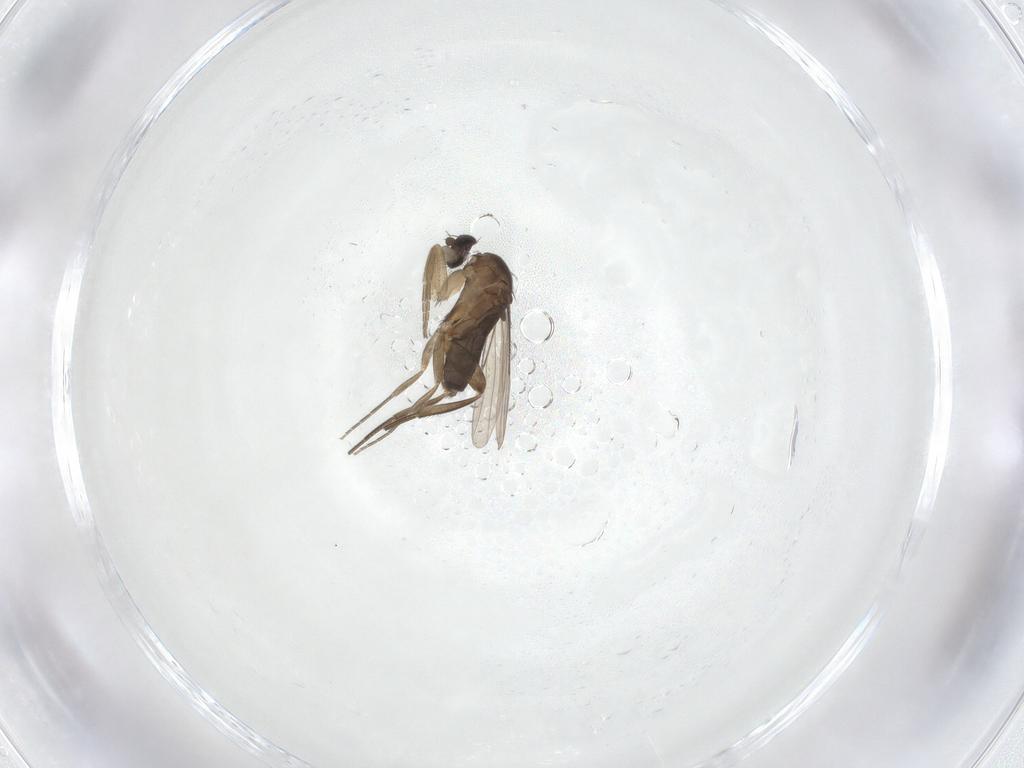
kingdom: Animalia
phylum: Arthropoda
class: Insecta
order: Diptera
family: Phoridae
